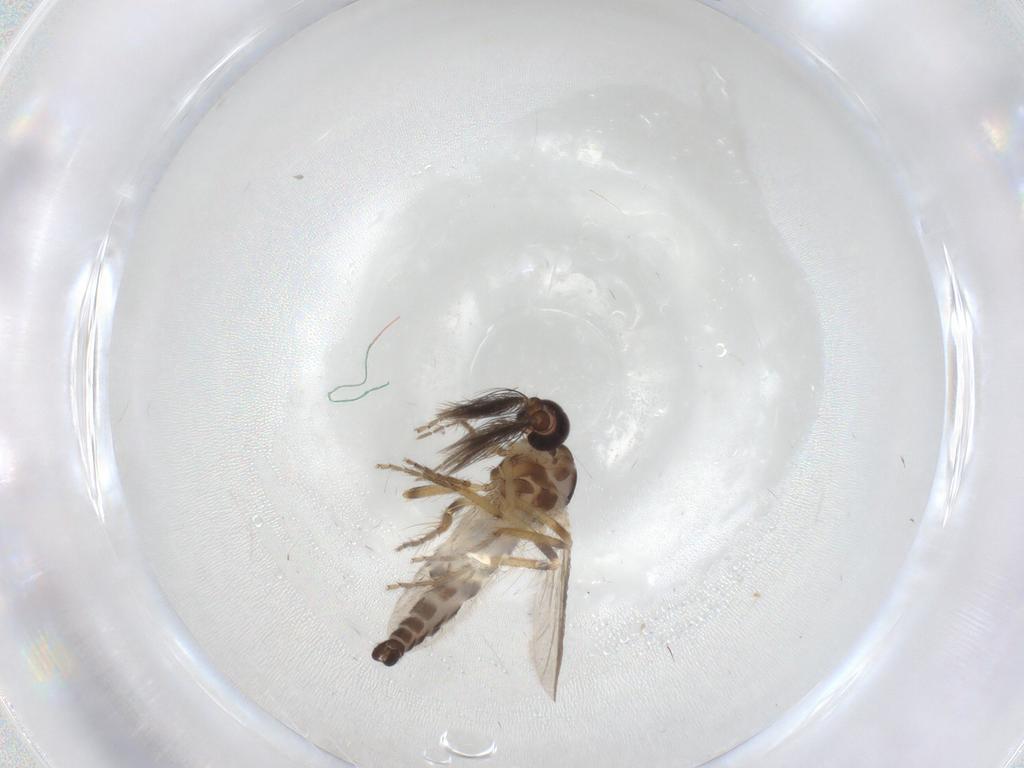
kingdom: Animalia
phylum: Arthropoda
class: Insecta
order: Diptera
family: Ceratopogonidae
